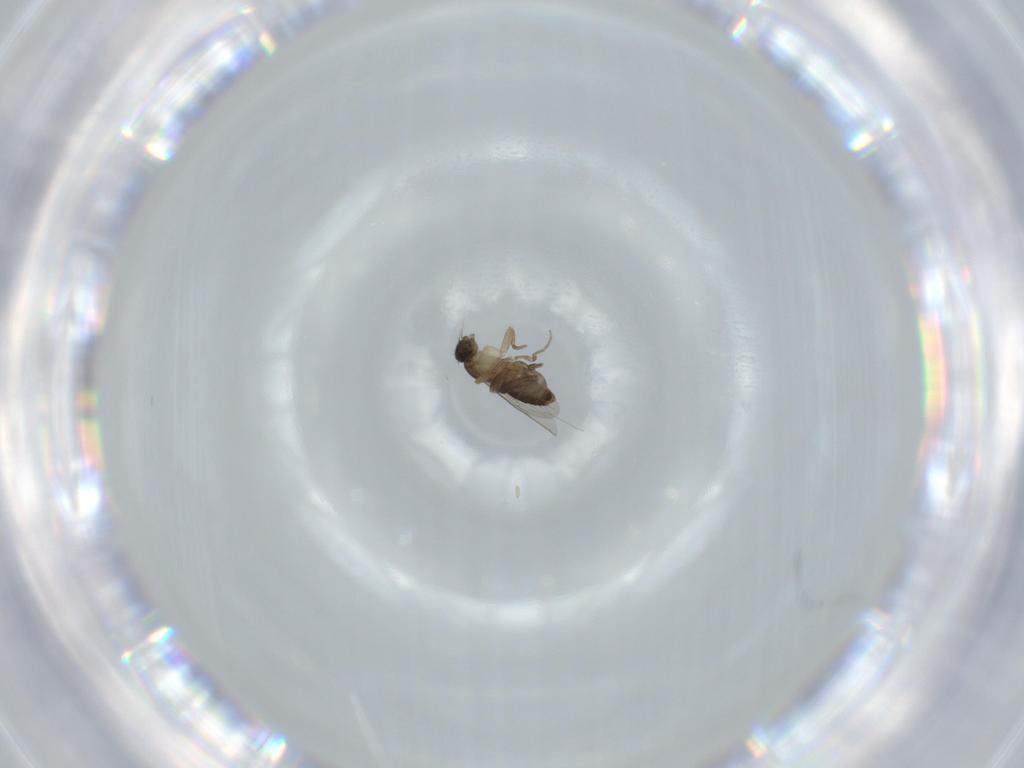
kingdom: Animalia
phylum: Arthropoda
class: Insecta
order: Diptera
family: Phoridae
